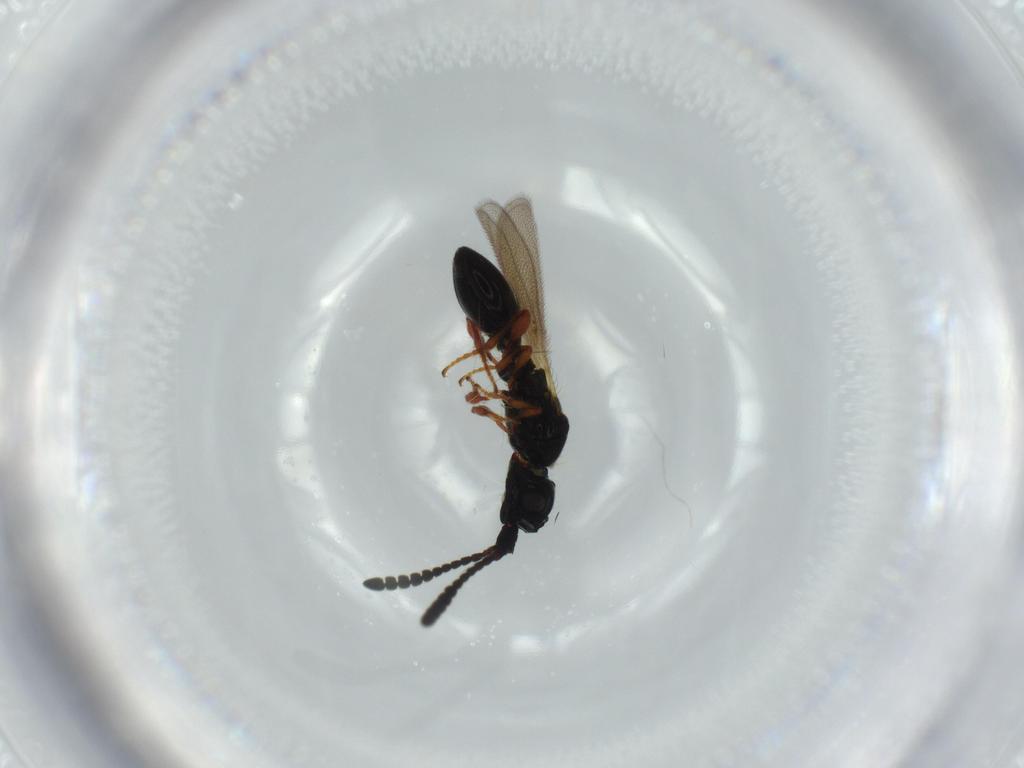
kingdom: Animalia
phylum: Arthropoda
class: Insecta
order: Hymenoptera
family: Diapriidae
